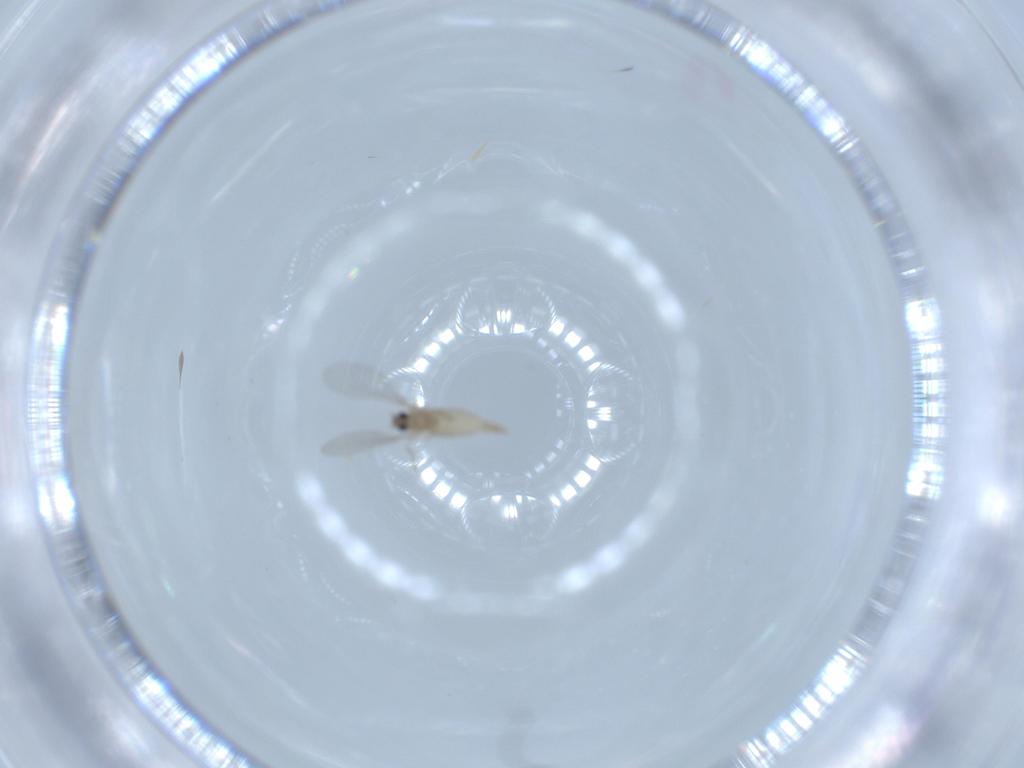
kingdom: Animalia
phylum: Arthropoda
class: Insecta
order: Diptera
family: Cecidomyiidae
